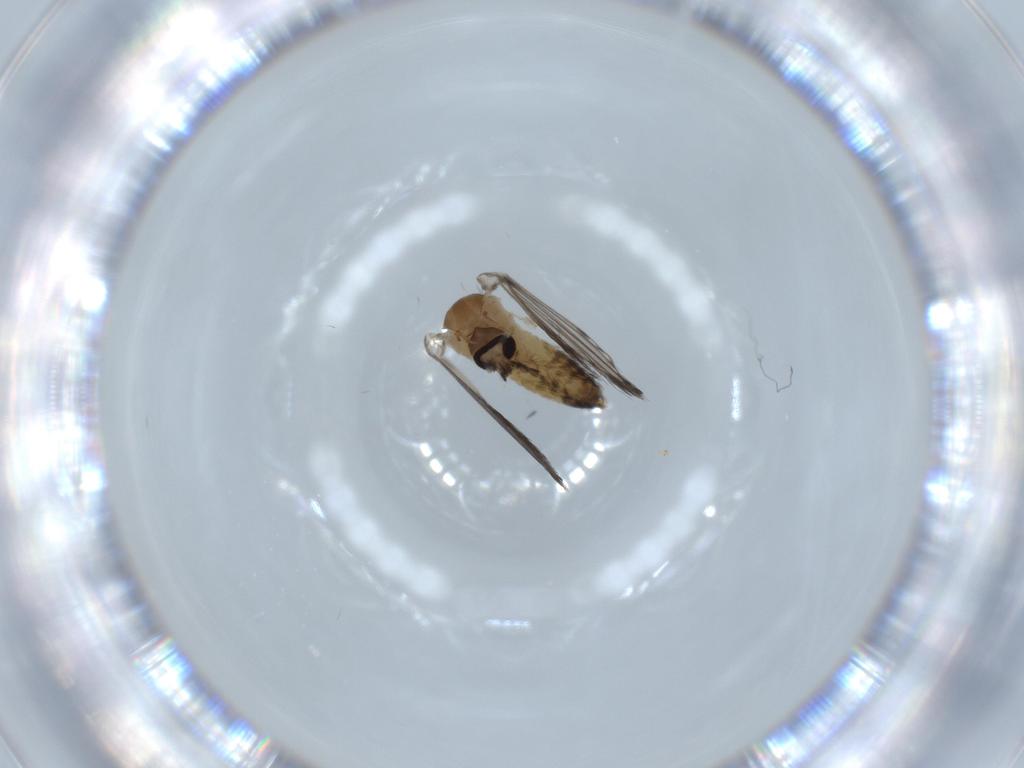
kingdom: Animalia
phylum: Arthropoda
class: Insecta
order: Diptera
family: Psychodidae
